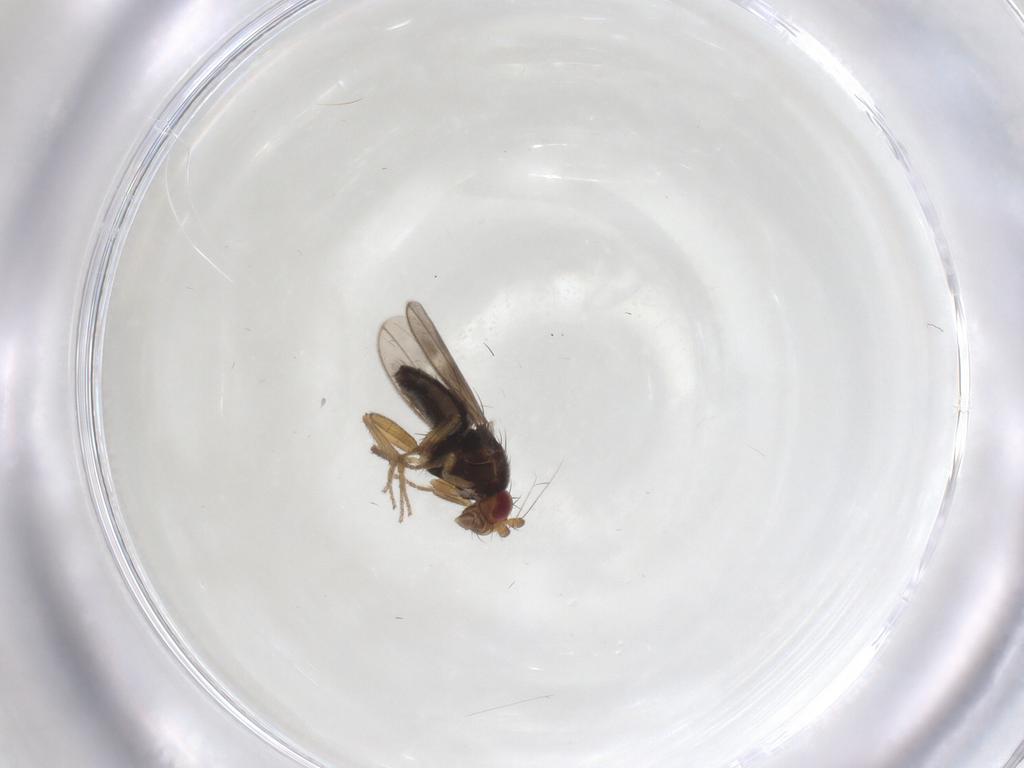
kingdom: Animalia
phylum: Arthropoda
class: Insecta
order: Diptera
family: Sphaeroceridae
